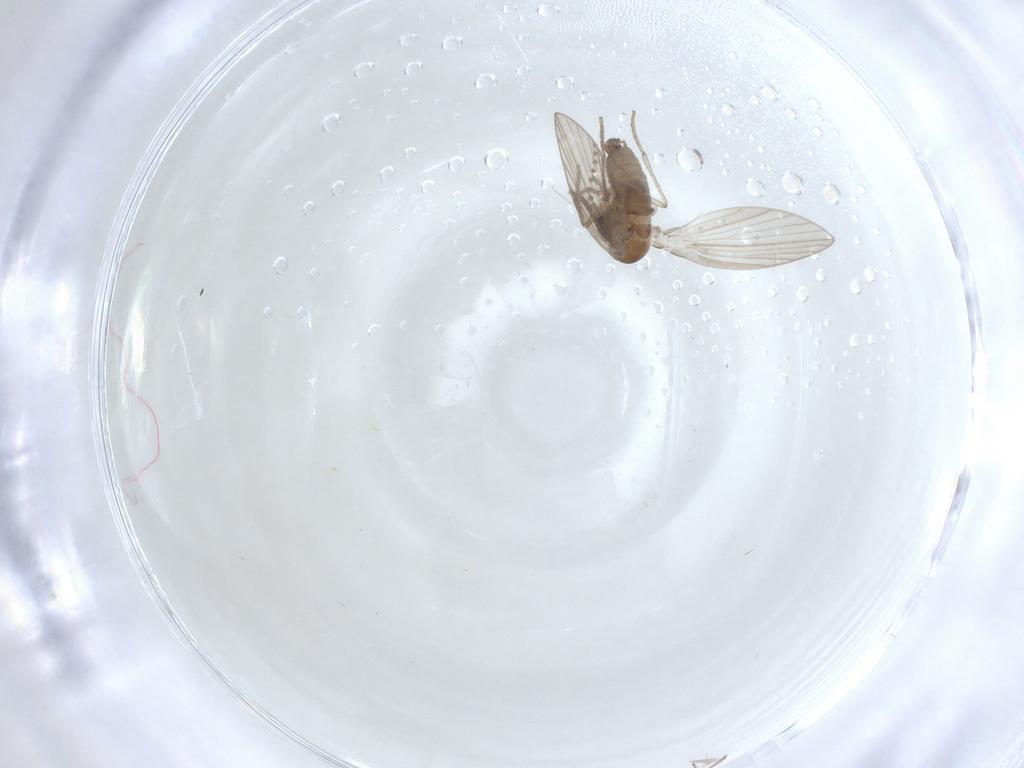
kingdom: Animalia
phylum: Arthropoda
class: Insecta
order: Diptera
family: Psychodidae
